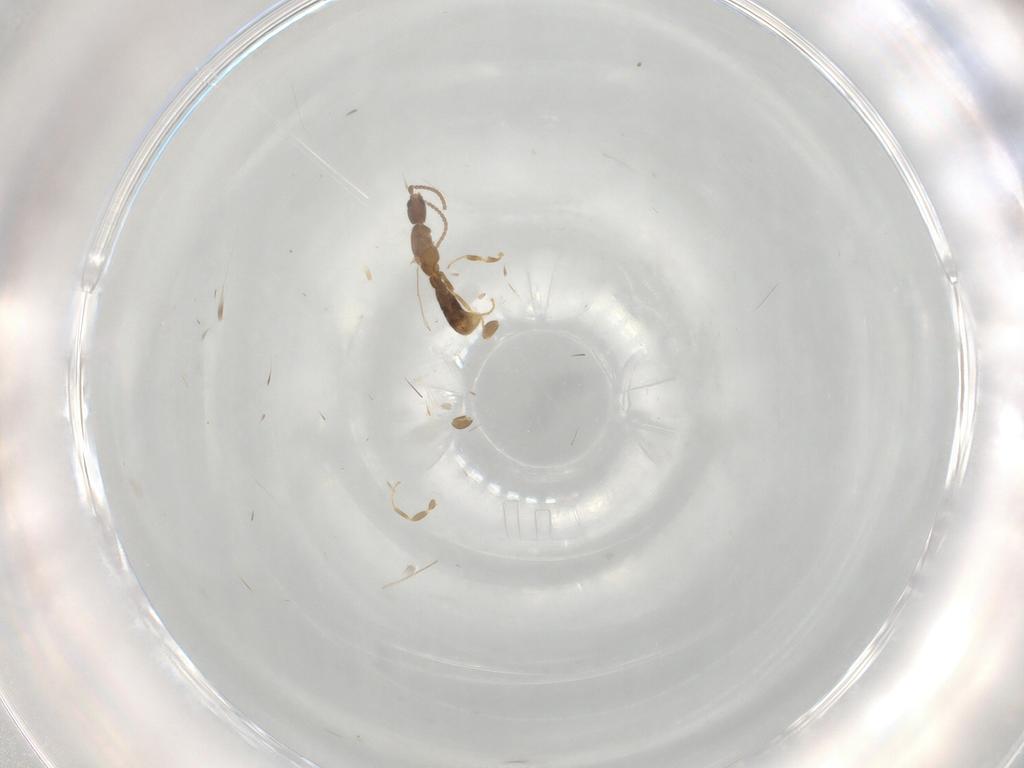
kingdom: Animalia
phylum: Arthropoda
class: Insecta
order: Hymenoptera
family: Formicidae
